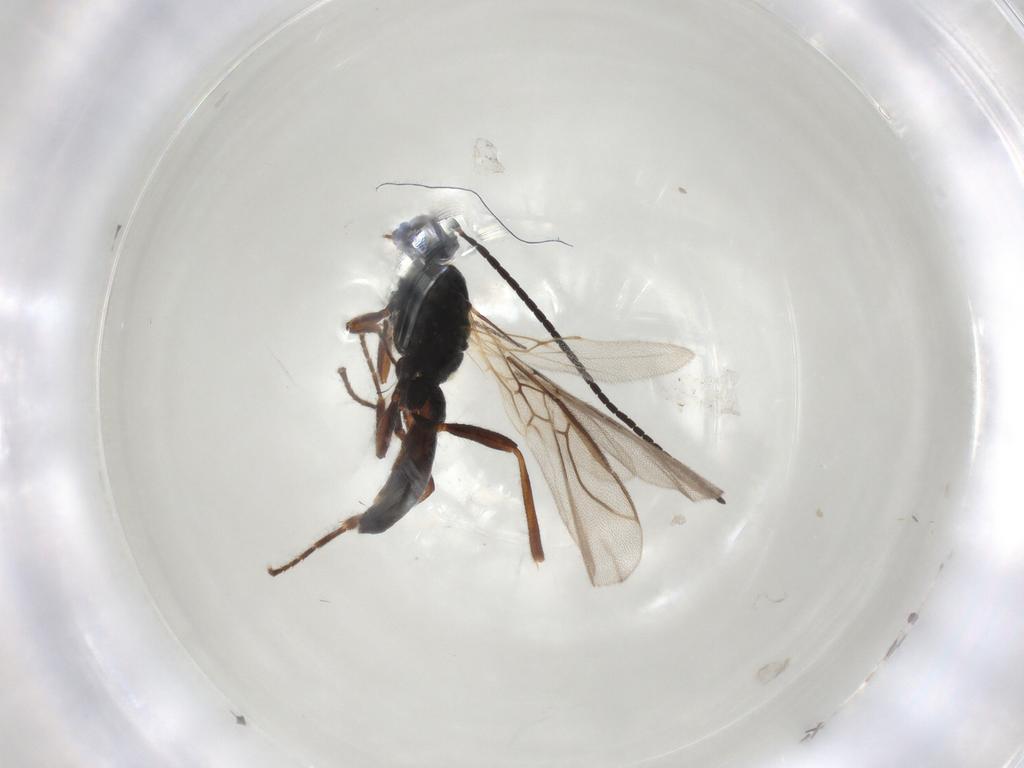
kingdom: Animalia
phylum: Arthropoda
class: Insecta
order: Hymenoptera
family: Braconidae
